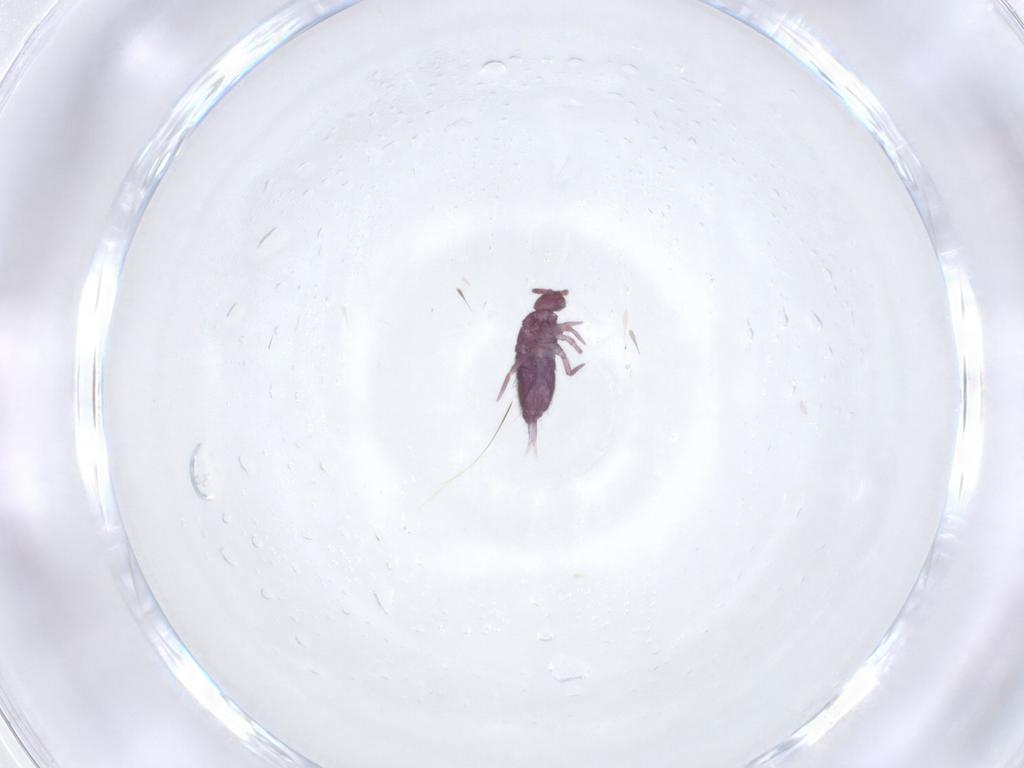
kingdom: Animalia
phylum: Arthropoda
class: Collembola
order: Entomobryomorpha
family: Entomobryidae
